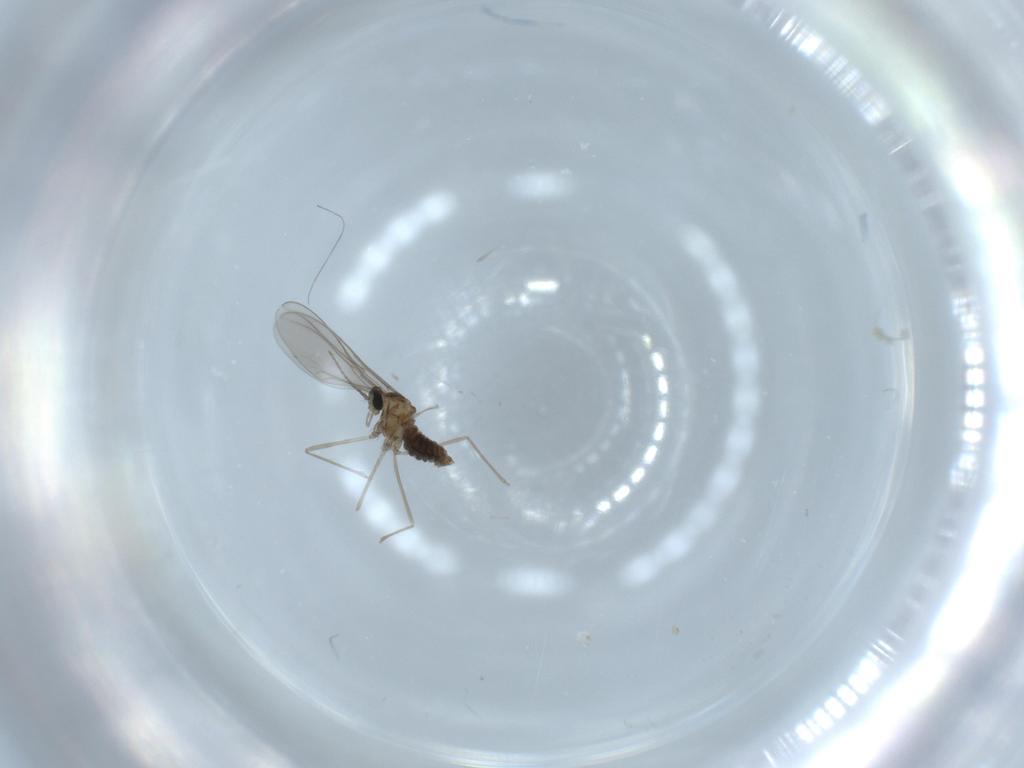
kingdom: Animalia
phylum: Arthropoda
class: Insecta
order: Diptera
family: Cecidomyiidae
